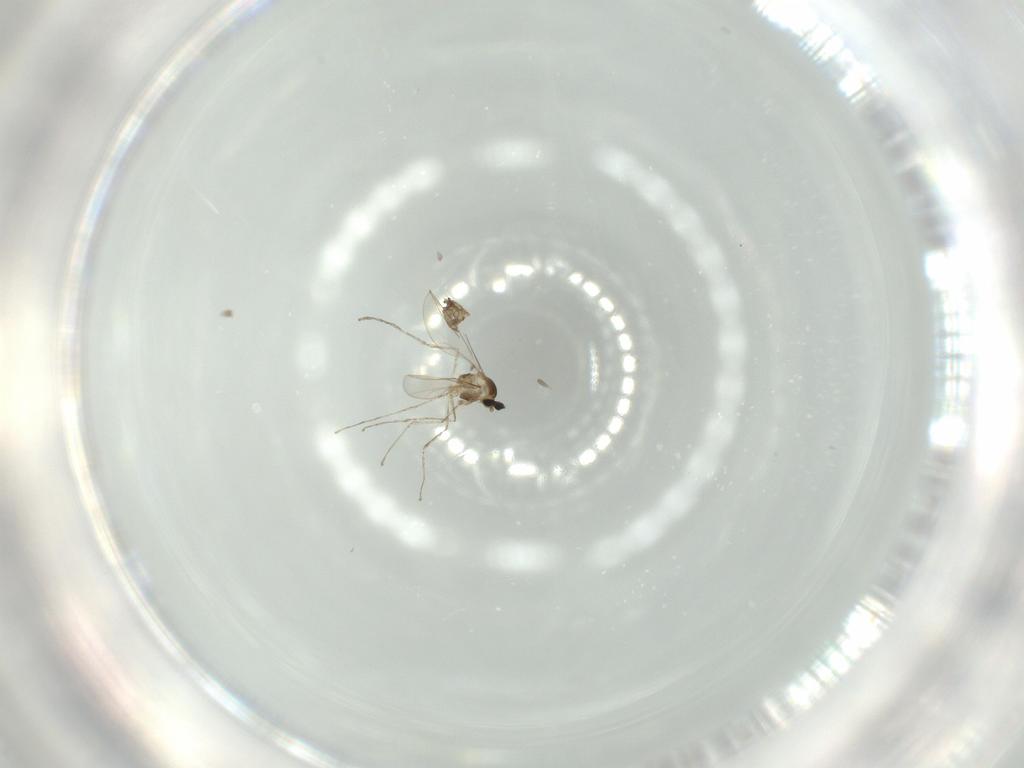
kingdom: Animalia
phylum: Arthropoda
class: Insecta
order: Diptera
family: Cecidomyiidae
